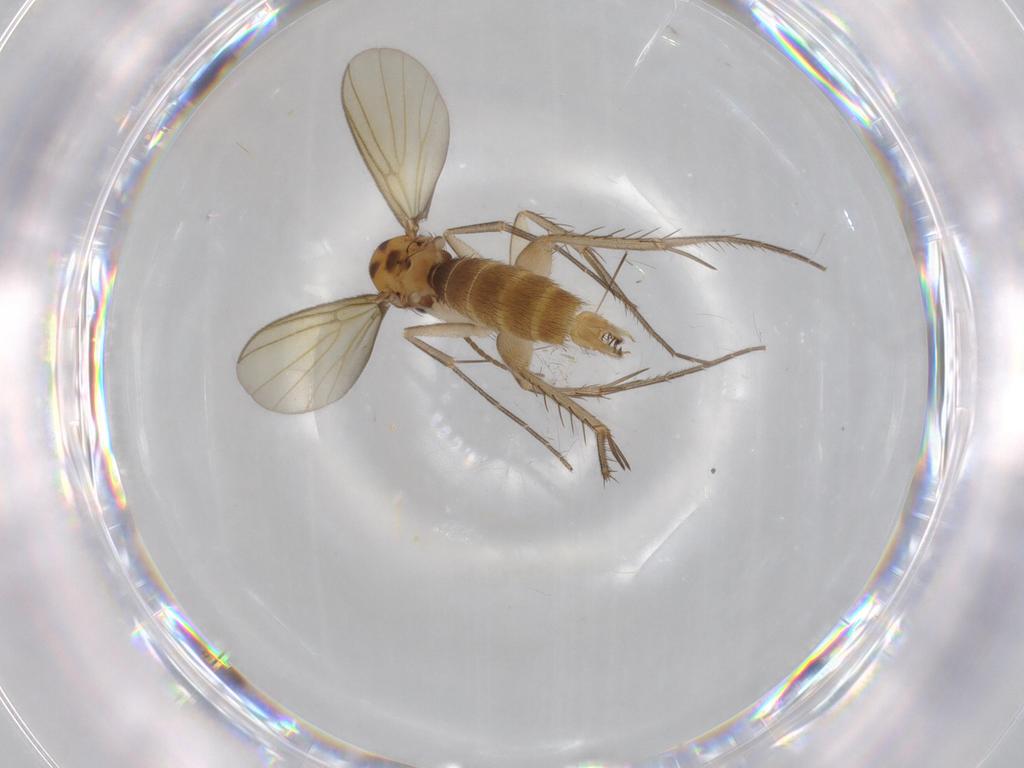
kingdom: Animalia
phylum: Arthropoda
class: Insecta
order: Diptera
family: Mycetophilidae
